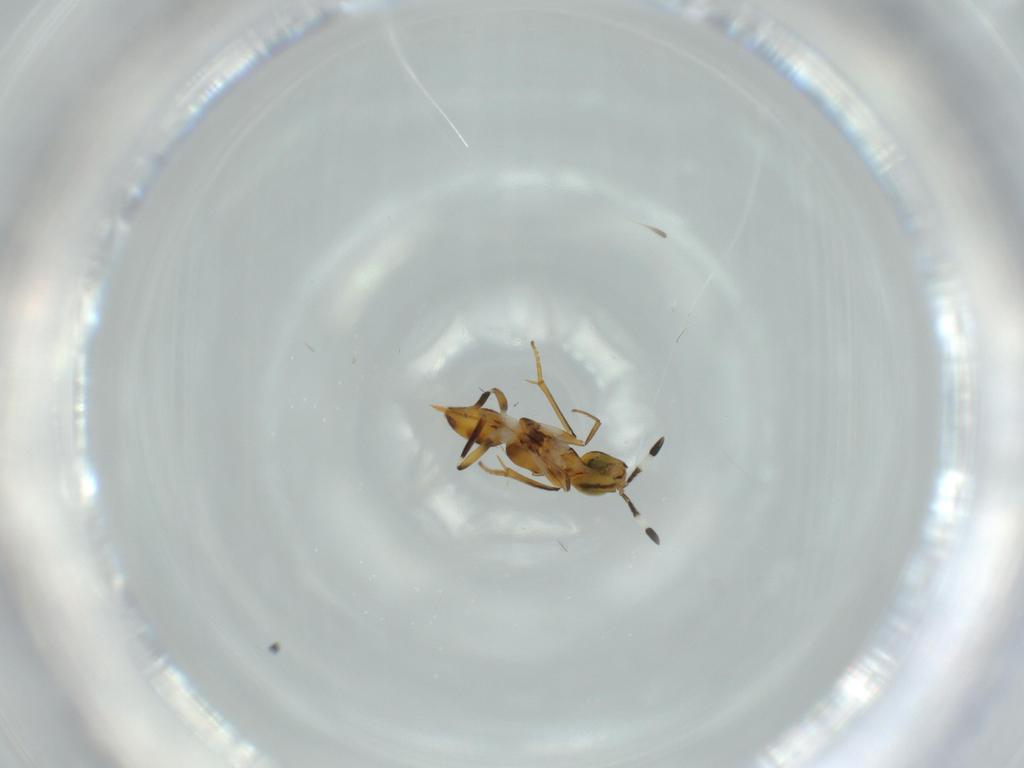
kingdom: Animalia
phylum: Arthropoda
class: Insecta
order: Hymenoptera
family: Encyrtidae
